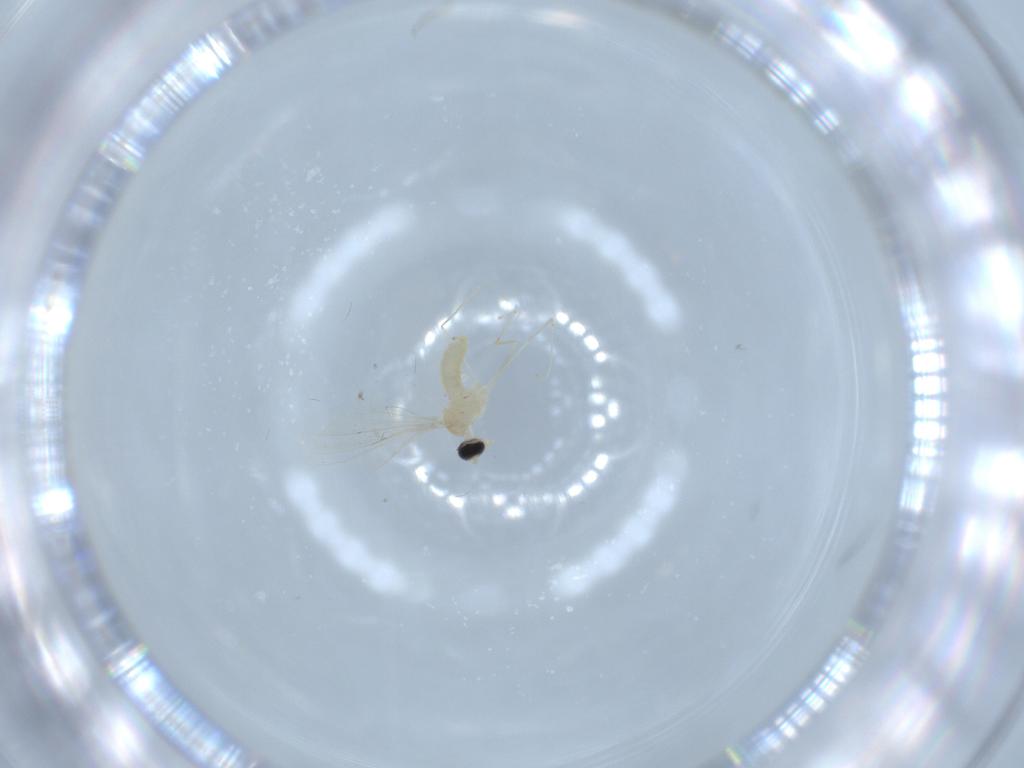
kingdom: Animalia
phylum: Arthropoda
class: Insecta
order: Diptera
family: Cecidomyiidae
